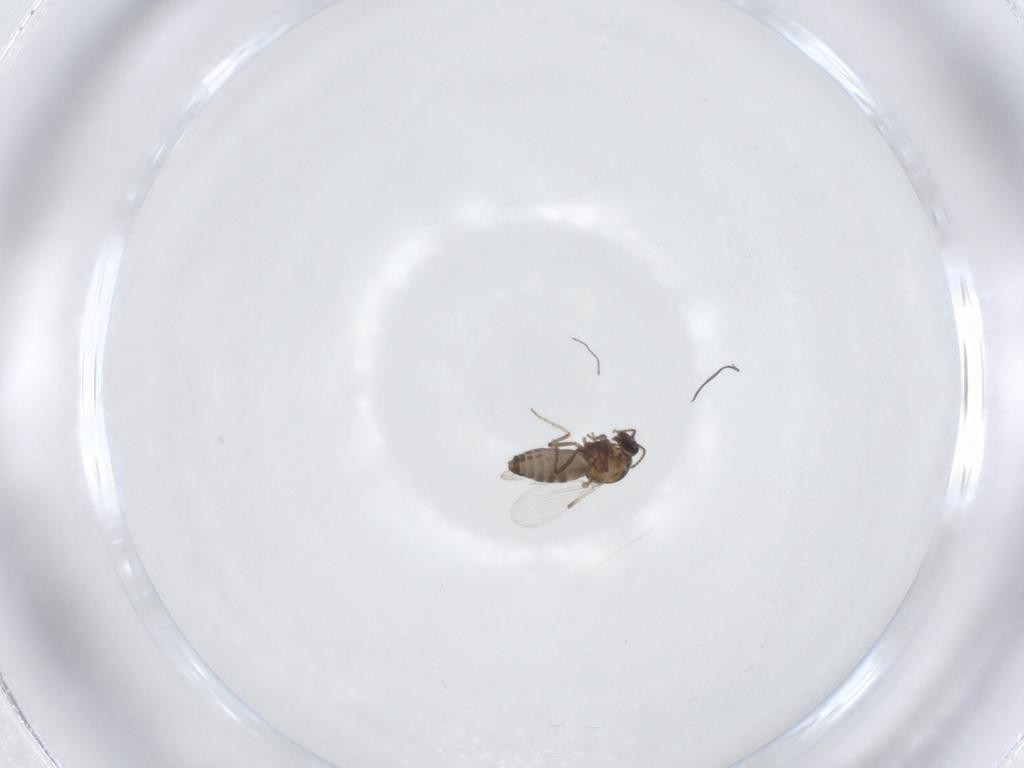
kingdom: Animalia
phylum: Arthropoda
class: Insecta
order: Diptera
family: Ceratopogonidae
